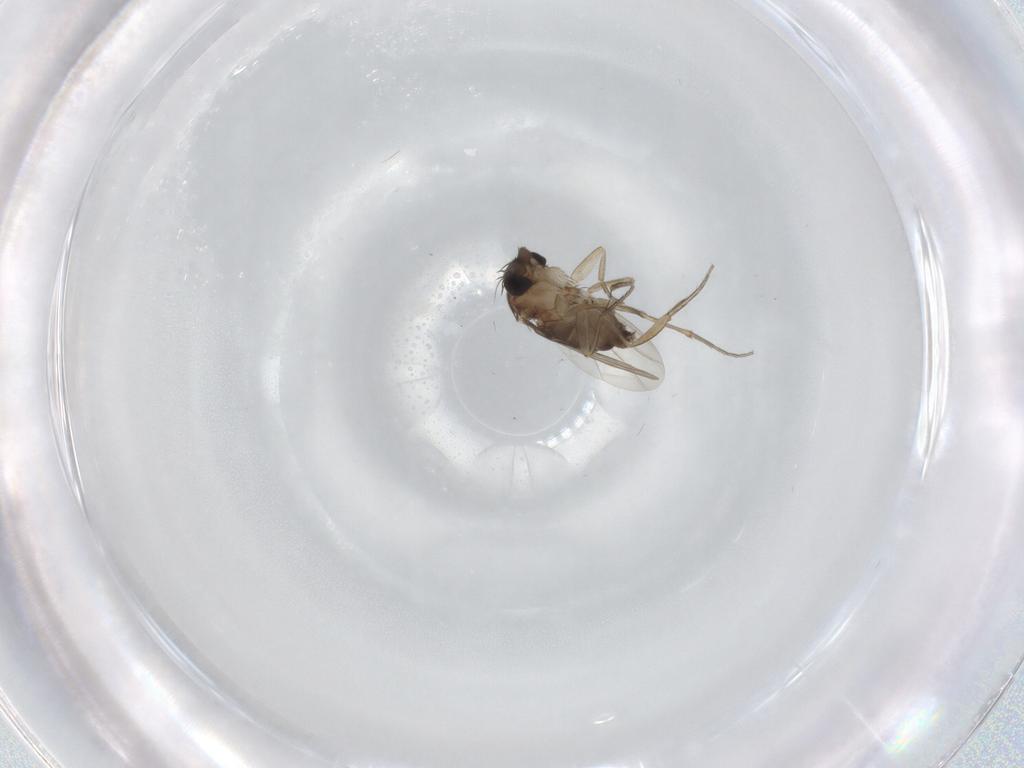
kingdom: Animalia
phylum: Arthropoda
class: Insecta
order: Diptera
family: Phoridae
